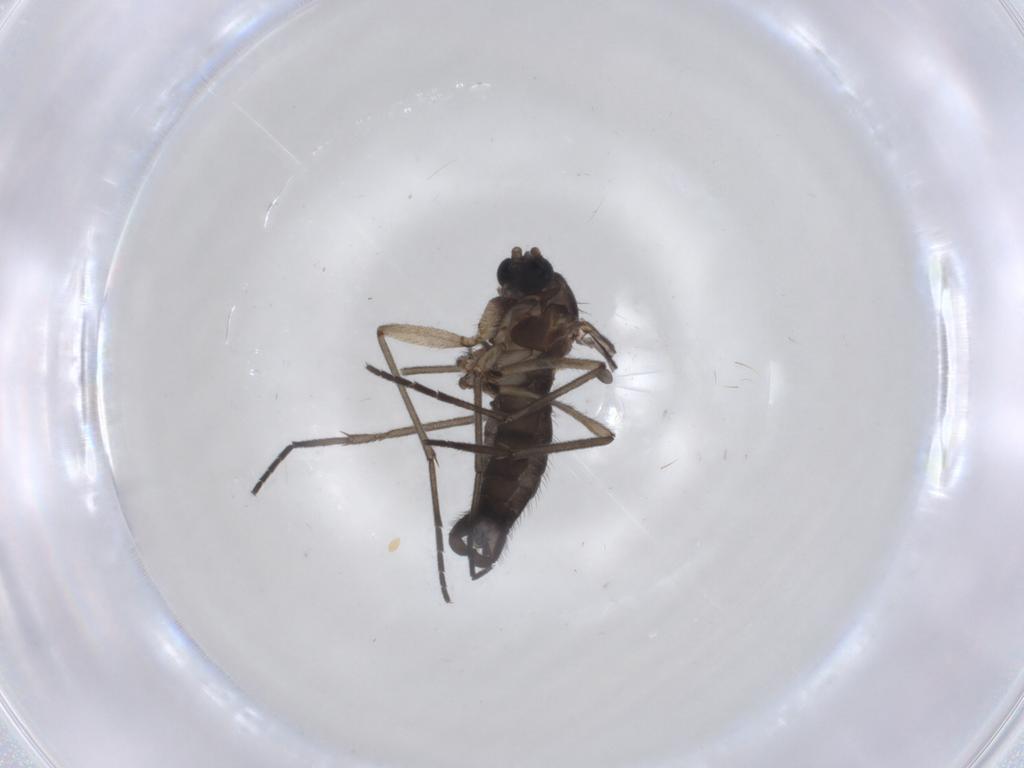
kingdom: Animalia
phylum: Arthropoda
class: Insecta
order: Diptera
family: Sciaridae
